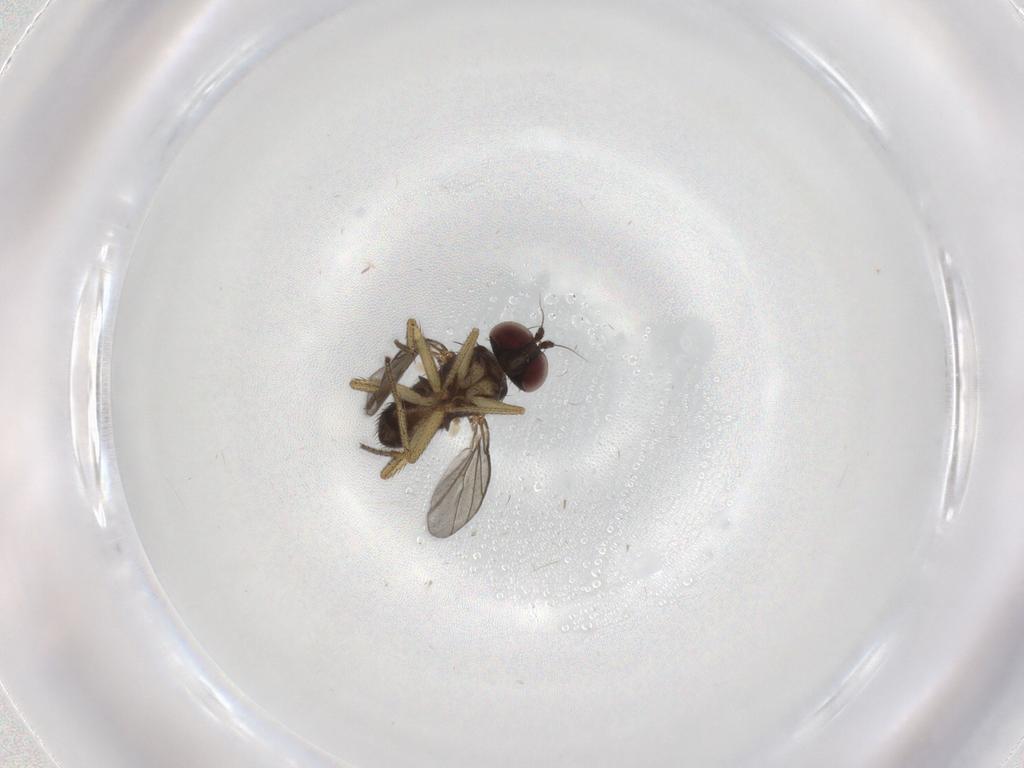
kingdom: Animalia
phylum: Arthropoda
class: Insecta
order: Diptera
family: Dolichopodidae
